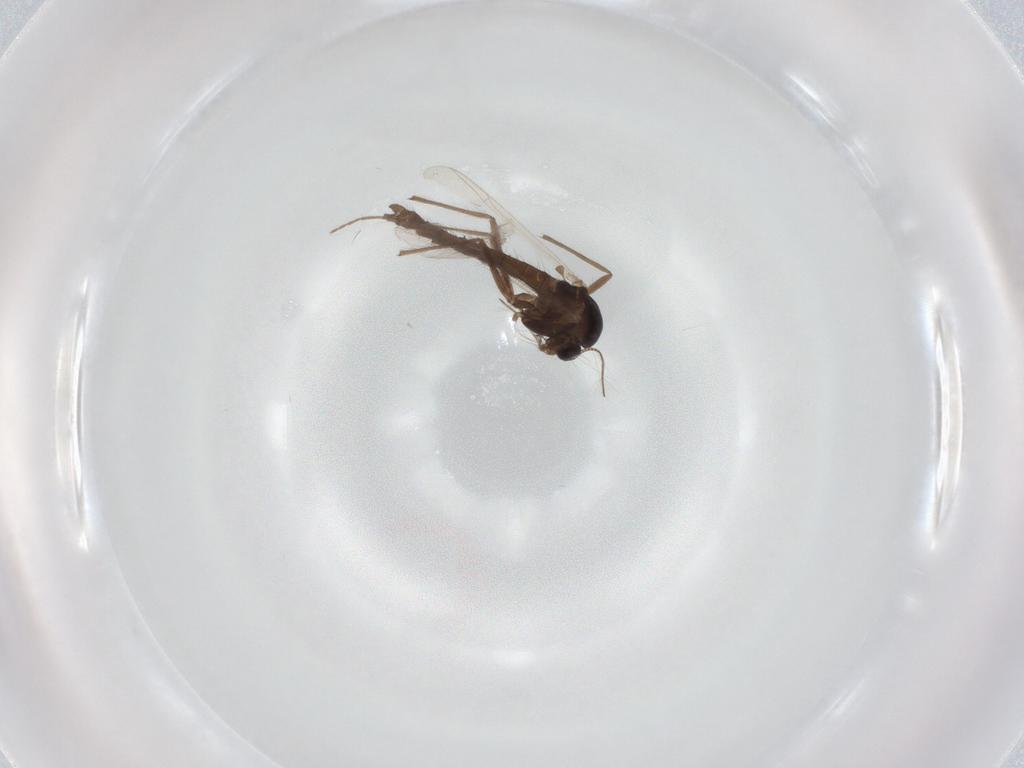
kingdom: Animalia
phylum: Arthropoda
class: Insecta
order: Diptera
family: Chironomidae
